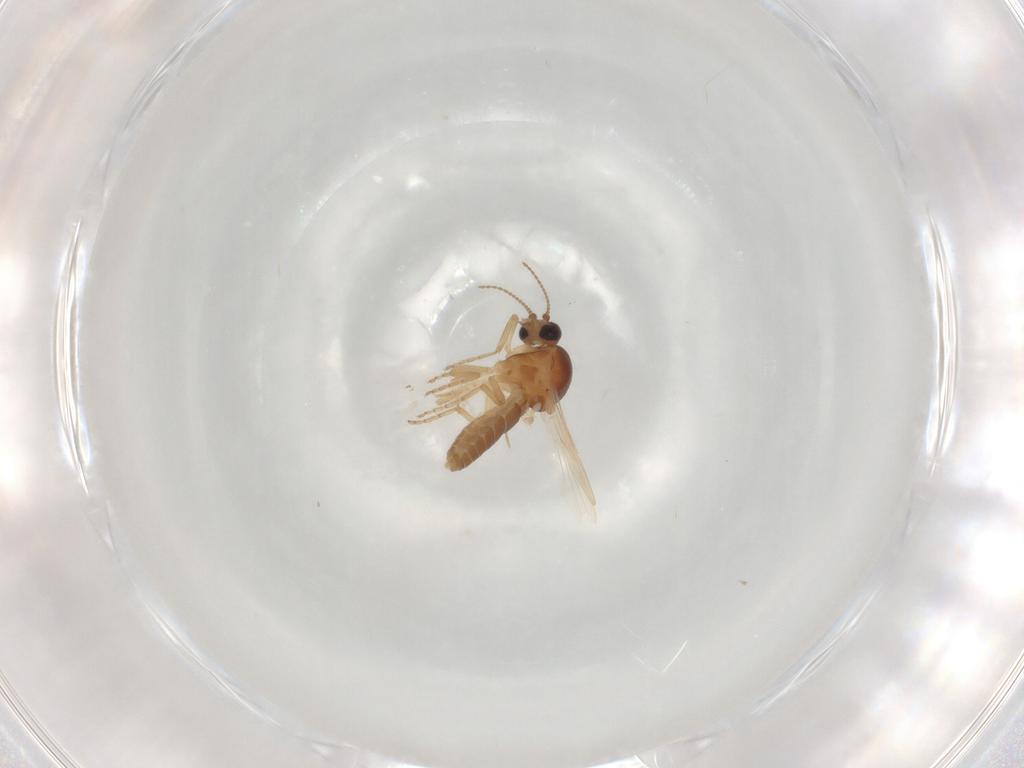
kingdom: Animalia
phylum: Arthropoda
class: Insecta
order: Diptera
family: Ceratopogonidae
